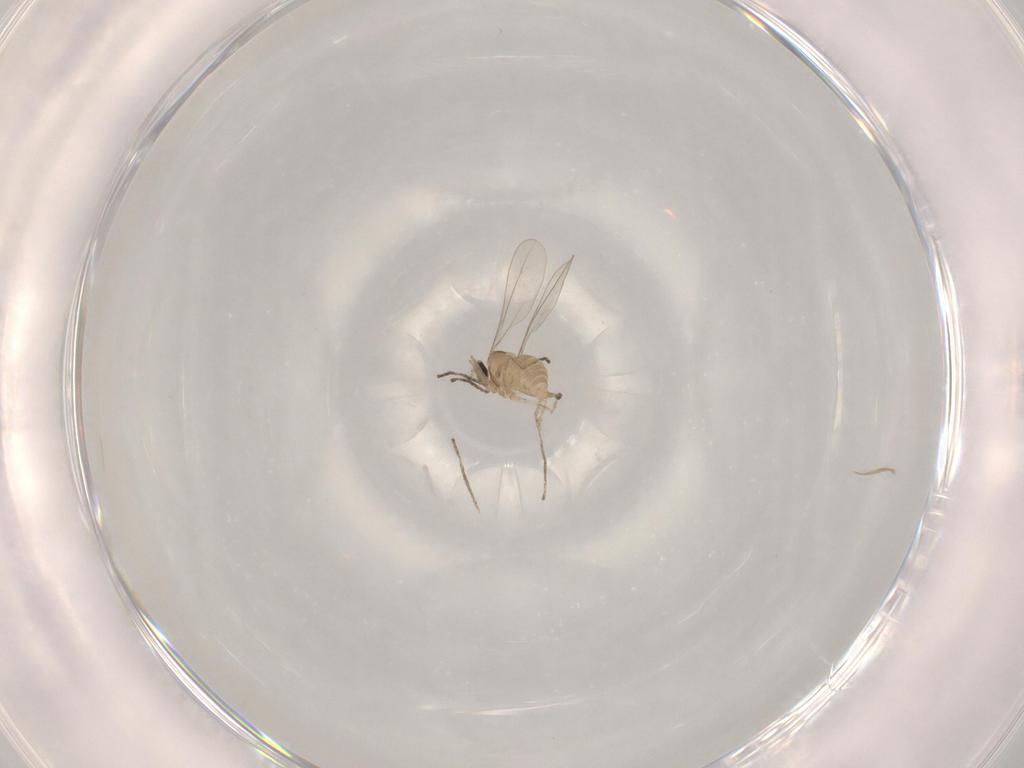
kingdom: Animalia
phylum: Arthropoda
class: Insecta
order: Diptera
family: Cecidomyiidae
